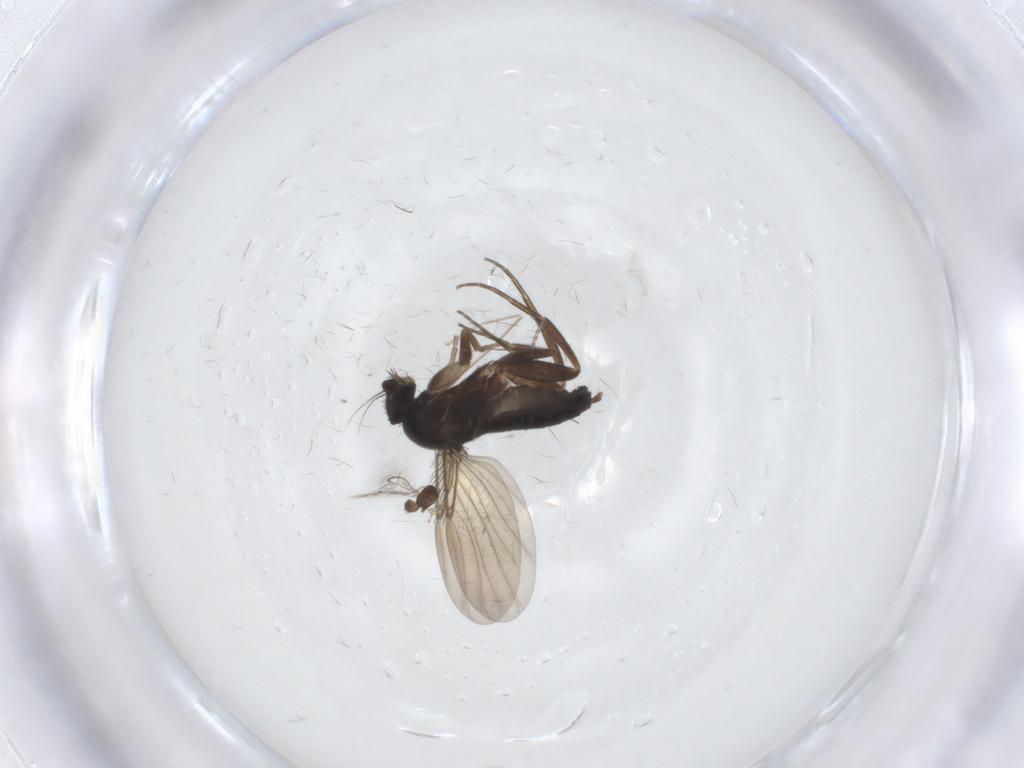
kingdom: Animalia
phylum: Arthropoda
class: Insecta
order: Diptera
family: Phoridae
